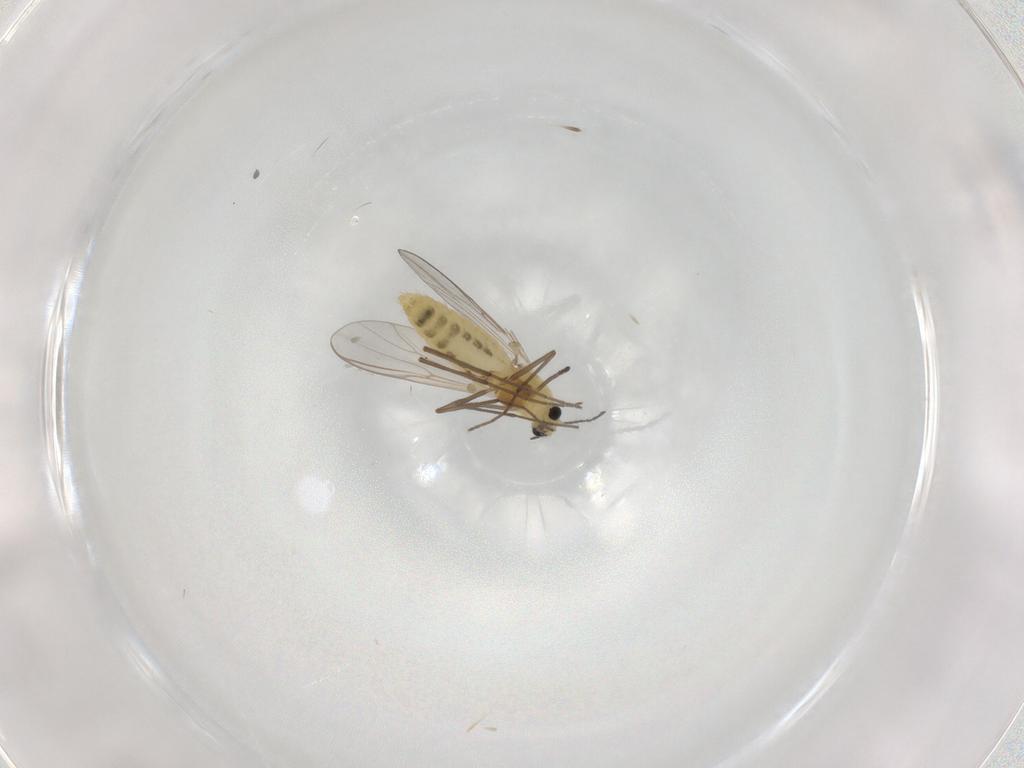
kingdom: Animalia
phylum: Arthropoda
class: Insecta
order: Diptera
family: Chironomidae
